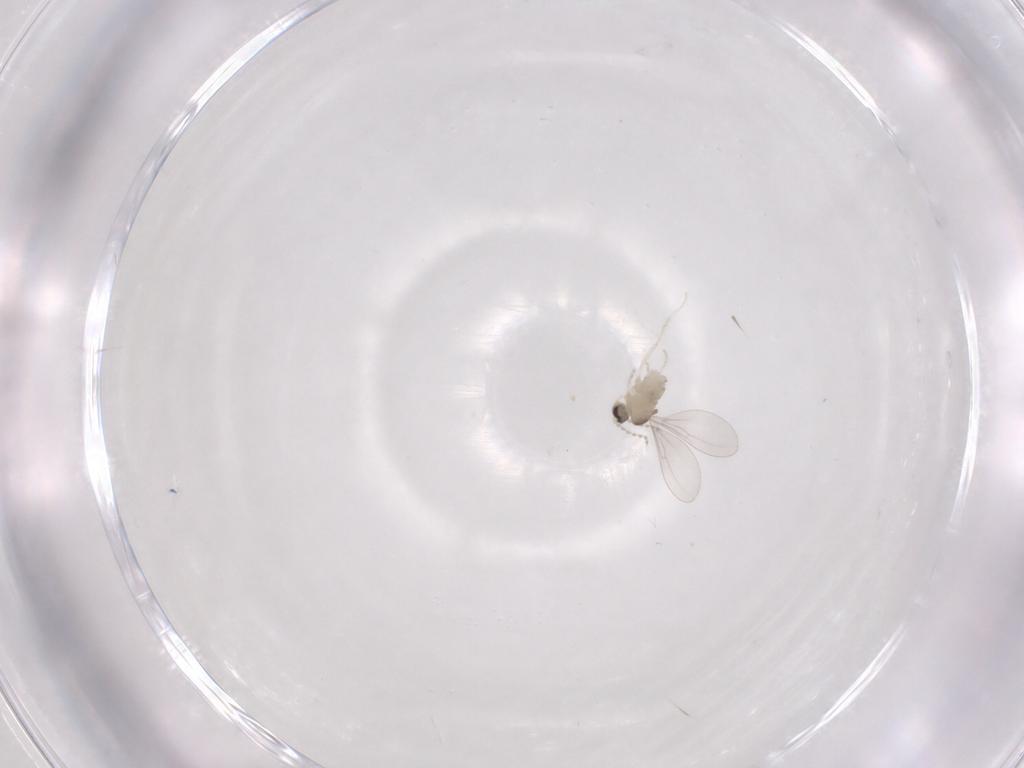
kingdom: Animalia
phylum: Arthropoda
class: Insecta
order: Diptera
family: Cecidomyiidae
